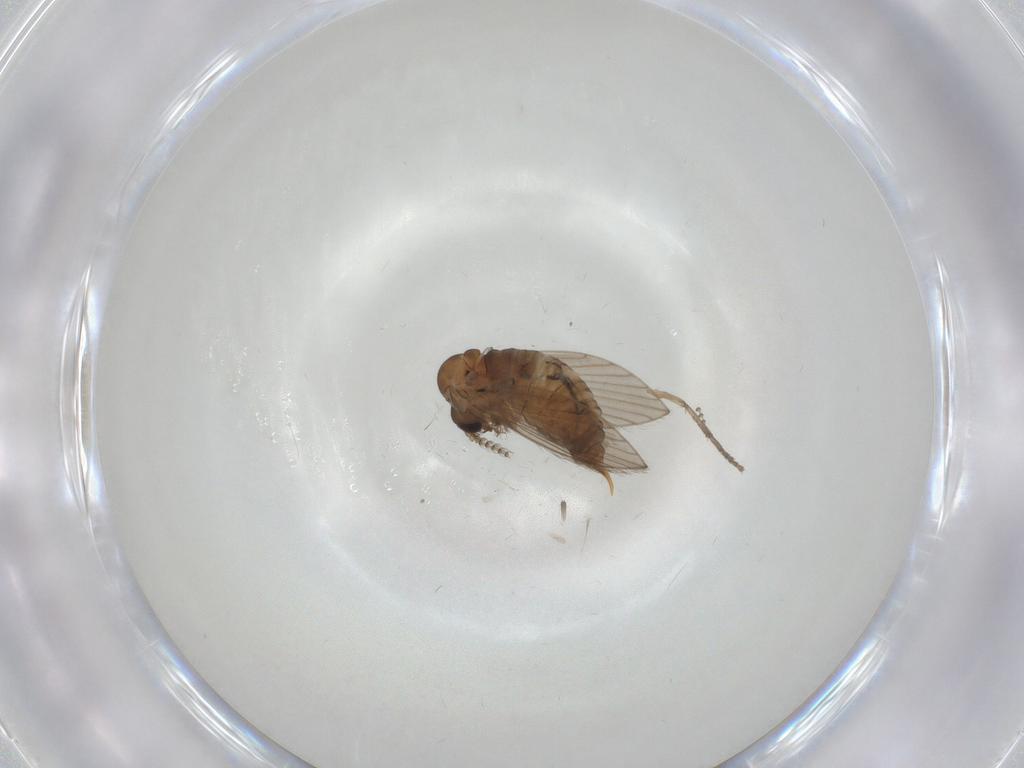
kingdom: Animalia
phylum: Arthropoda
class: Insecta
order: Diptera
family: Psychodidae
